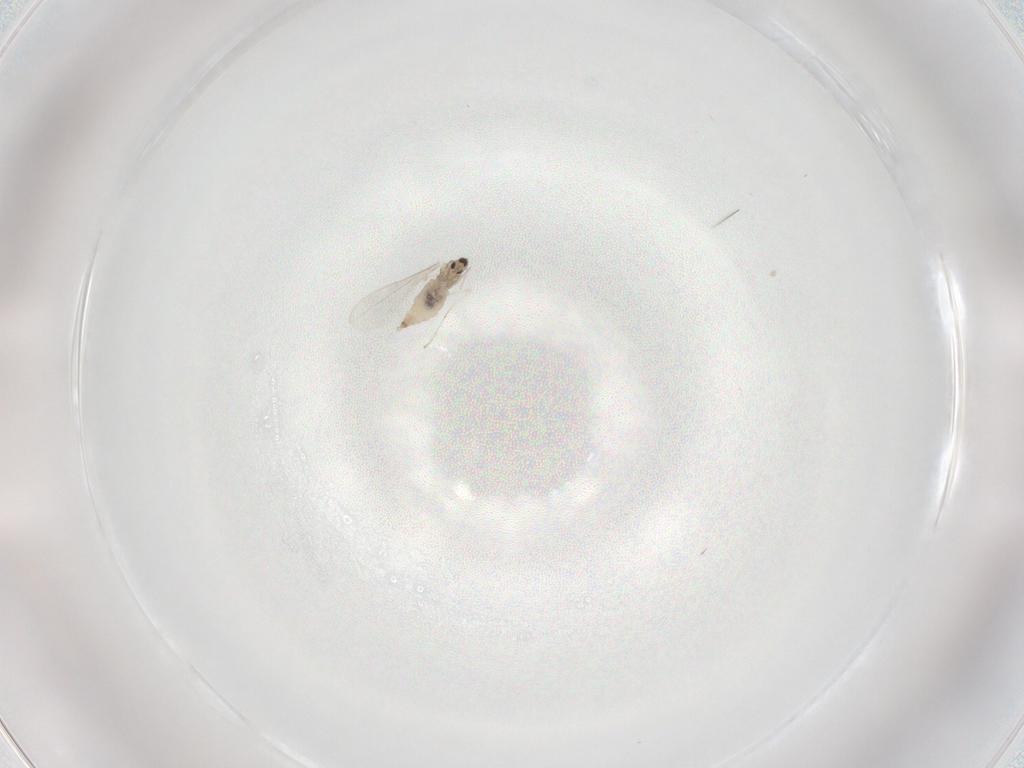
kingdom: Animalia
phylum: Arthropoda
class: Insecta
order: Diptera
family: Cecidomyiidae
